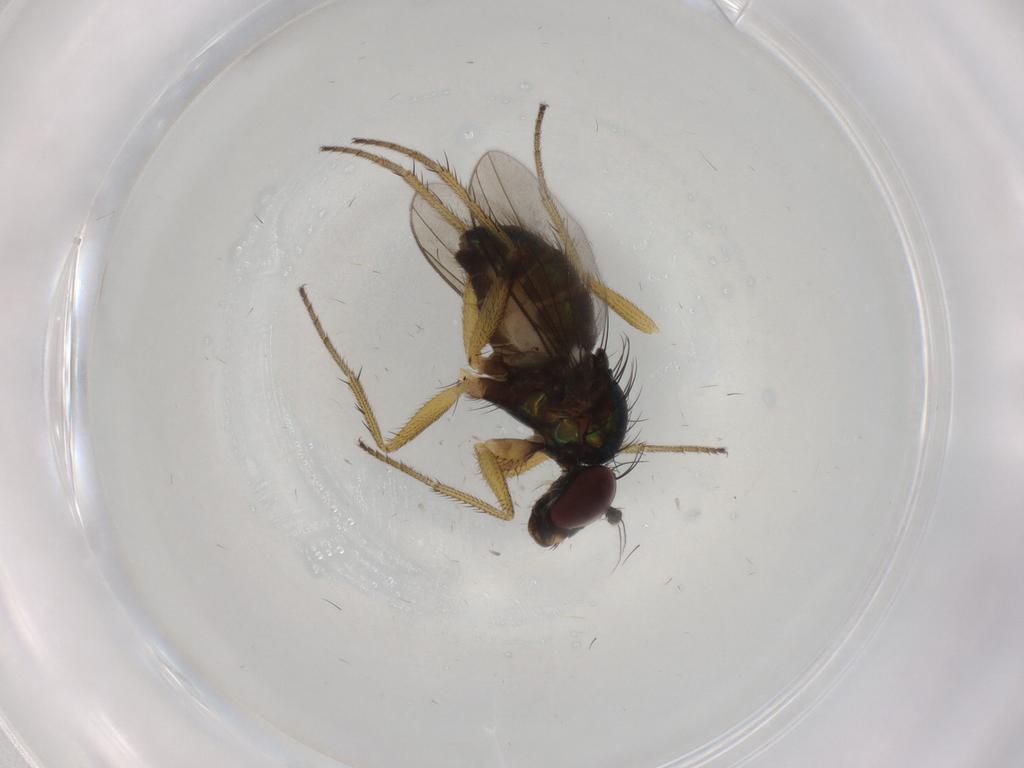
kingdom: Animalia
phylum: Arthropoda
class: Insecta
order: Diptera
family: Dolichopodidae
